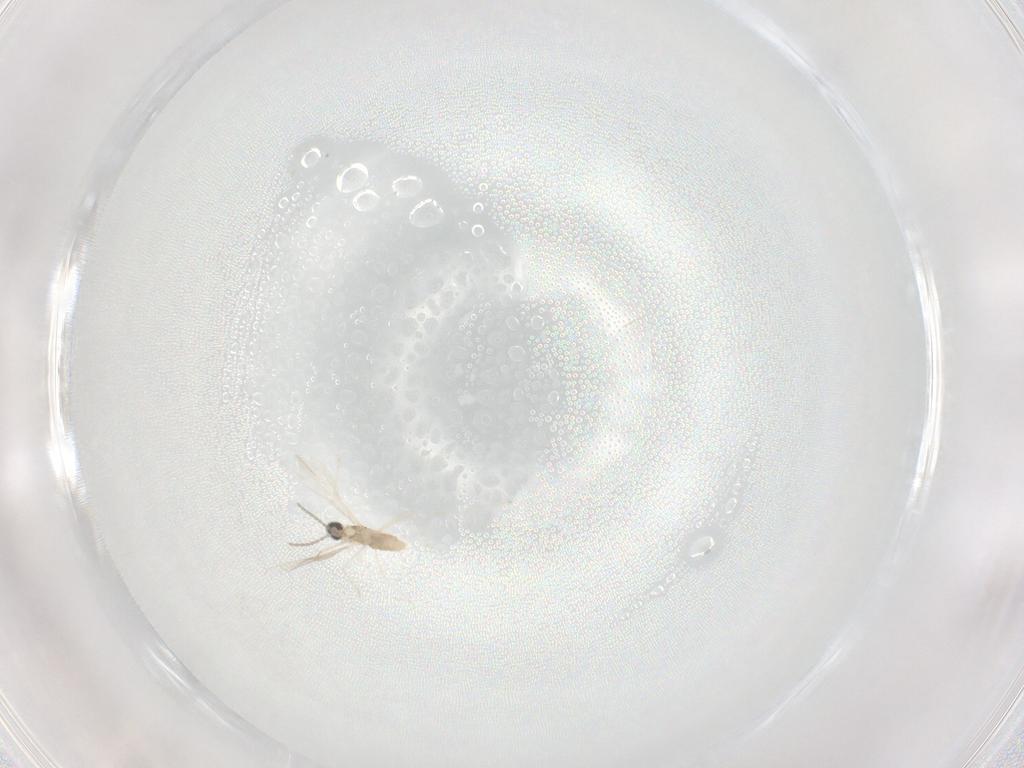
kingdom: Animalia
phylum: Arthropoda
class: Insecta
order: Diptera
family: Cecidomyiidae
